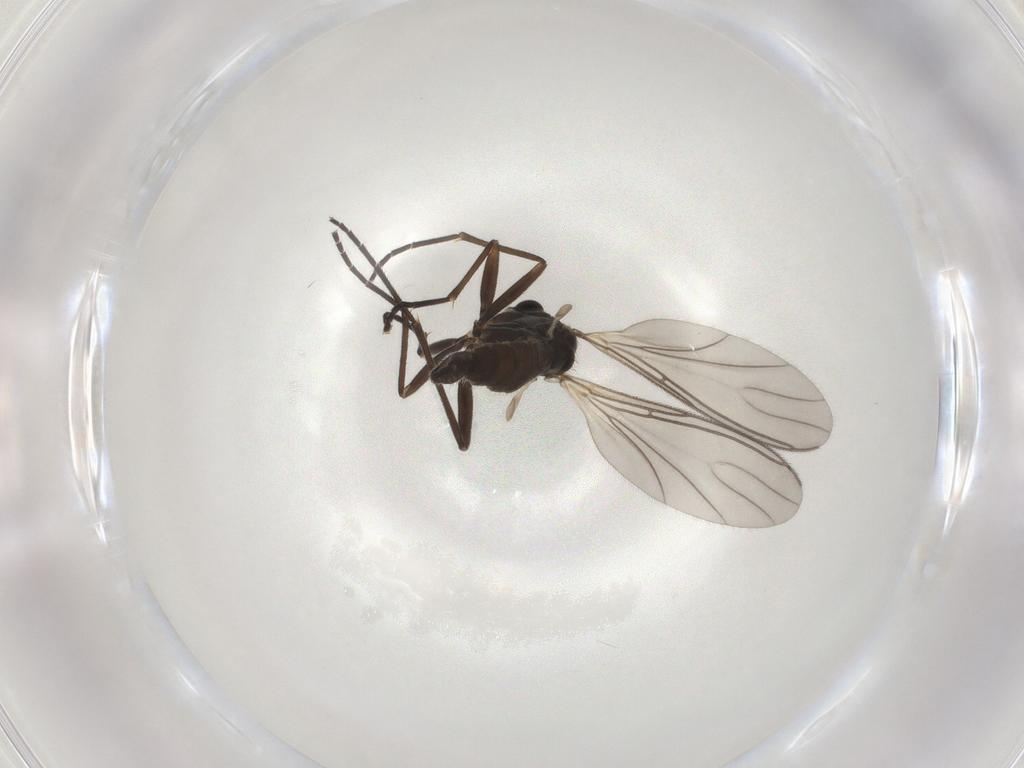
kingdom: Animalia
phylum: Arthropoda
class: Insecta
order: Diptera
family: Sciaridae
